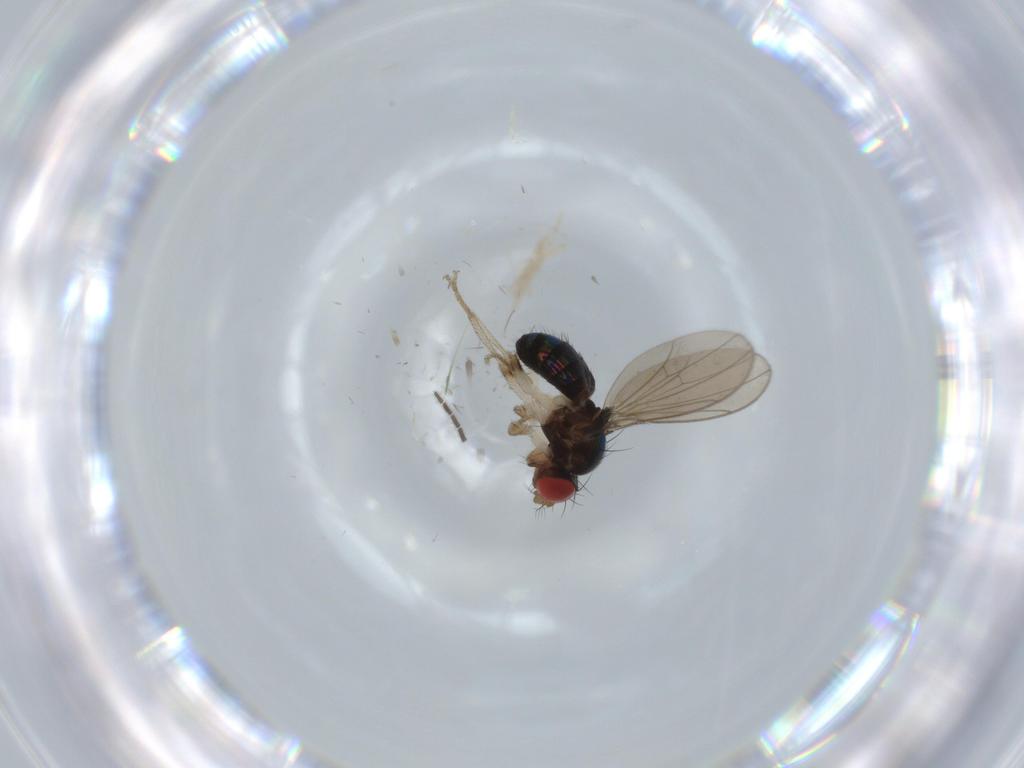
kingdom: Animalia
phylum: Arthropoda
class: Insecta
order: Diptera
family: Drosophilidae
